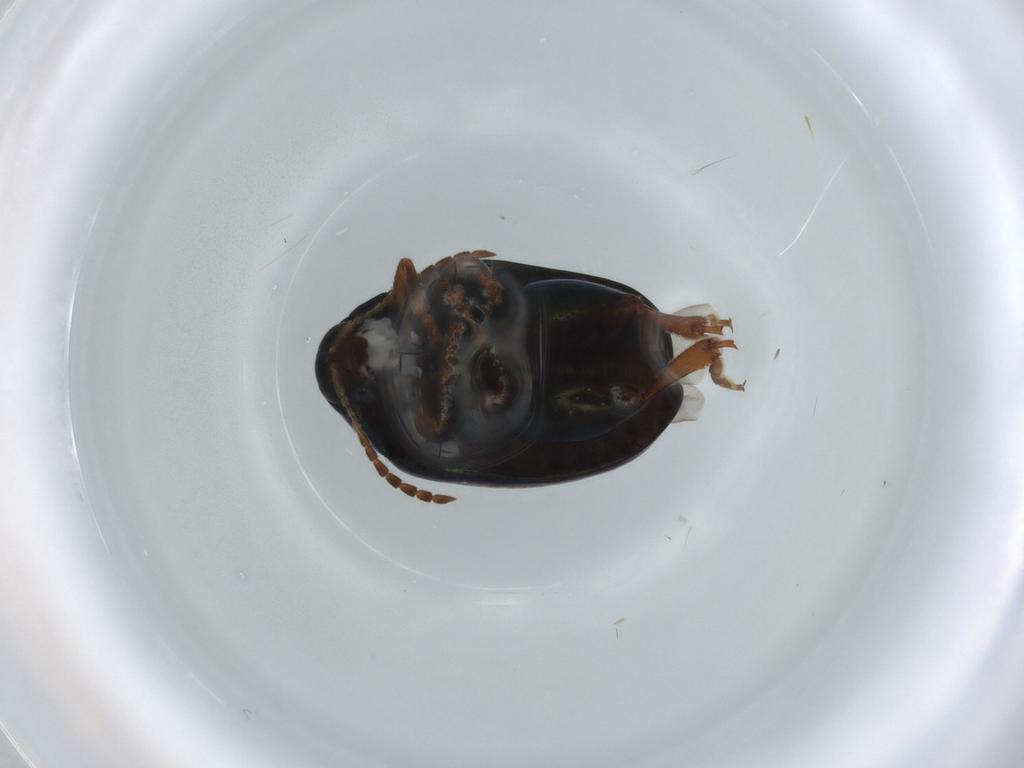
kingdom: Animalia
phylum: Arthropoda
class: Insecta
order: Coleoptera
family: Chrysomelidae
